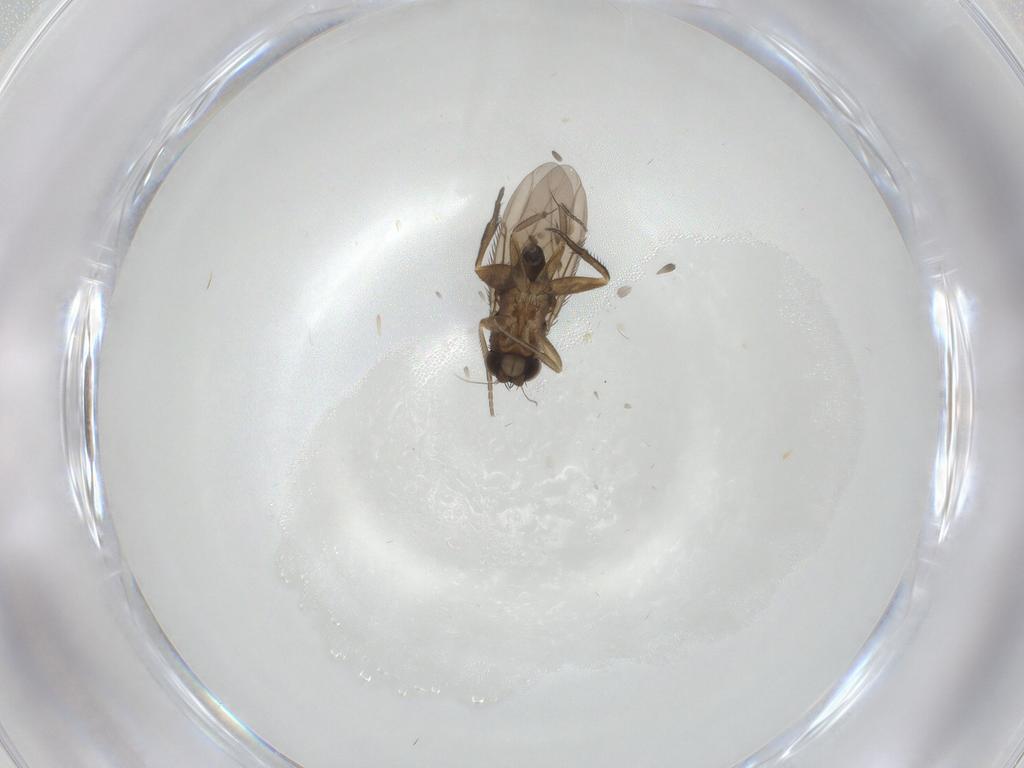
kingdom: Animalia
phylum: Arthropoda
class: Insecta
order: Diptera
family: Phoridae
